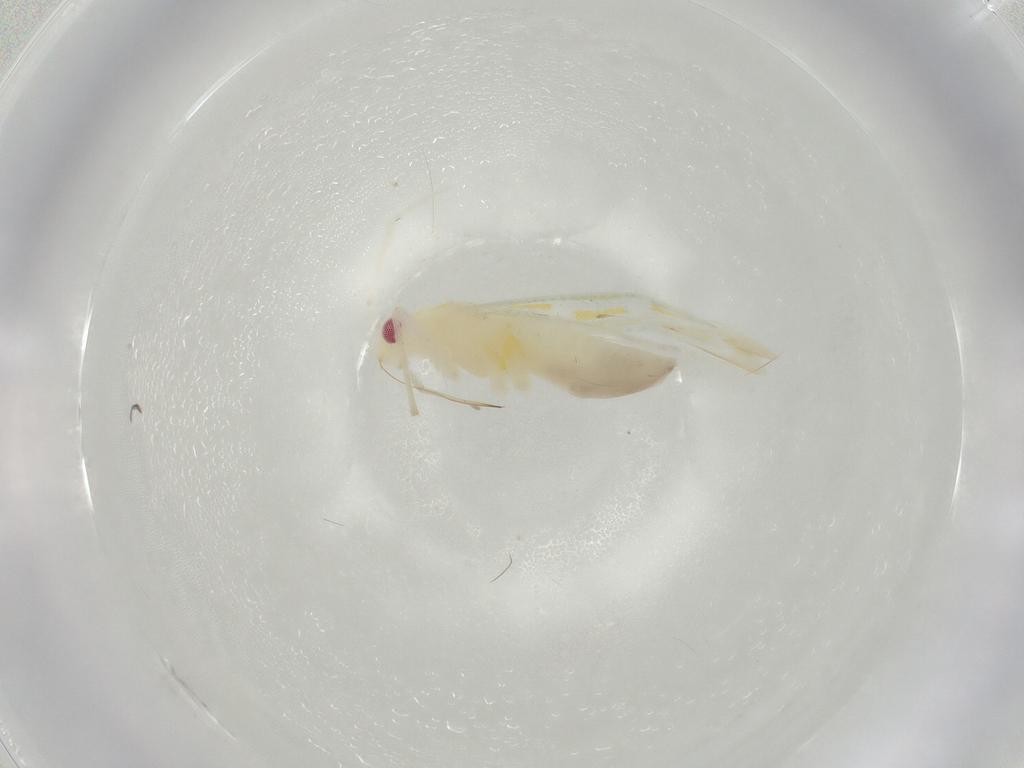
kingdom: Animalia
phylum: Arthropoda
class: Insecta
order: Hemiptera
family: Miridae
